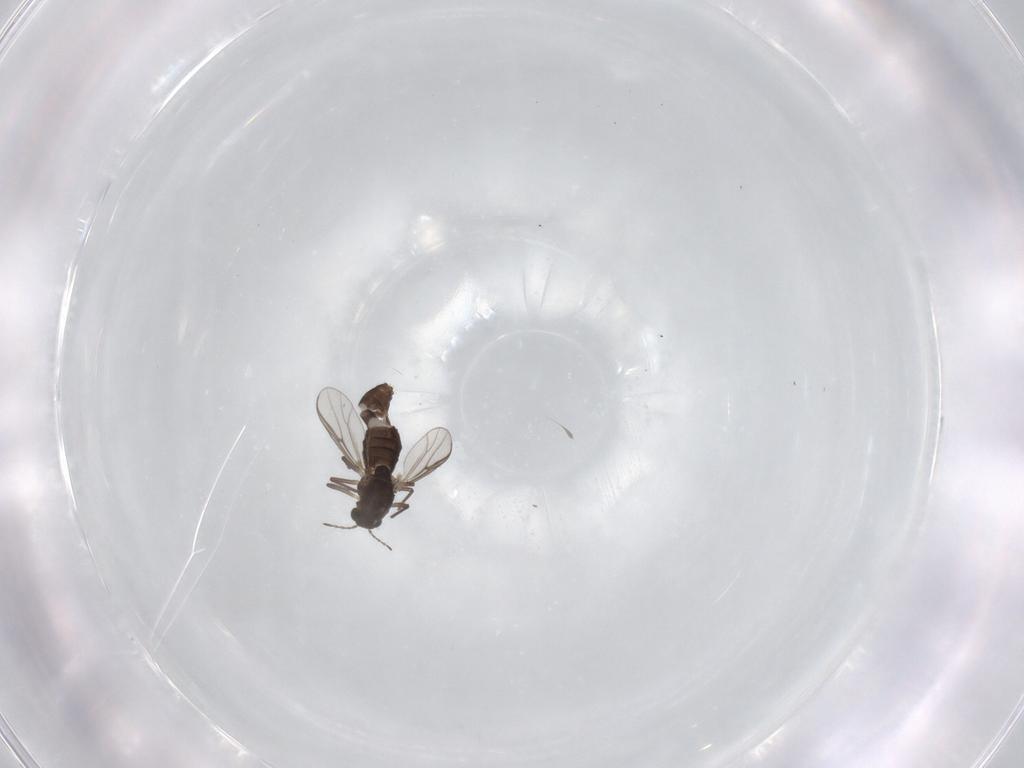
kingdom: Animalia
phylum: Arthropoda
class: Insecta
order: Diptera
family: Chironomidae
